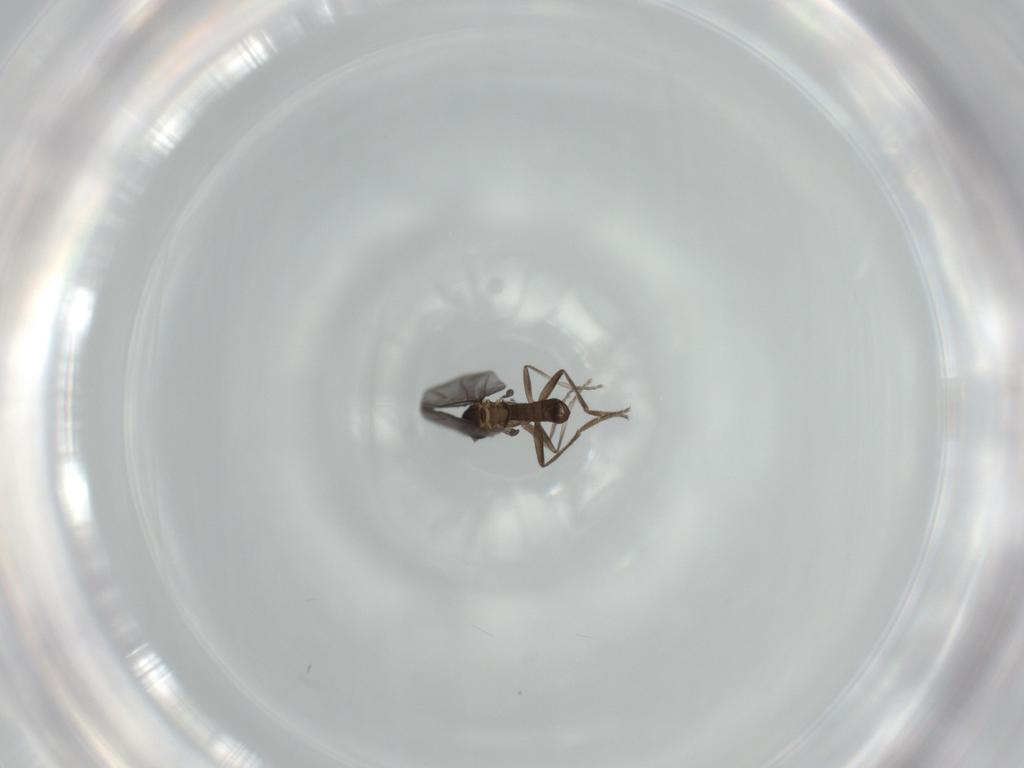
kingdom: Animalia
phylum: Arthropoda
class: Insecta
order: Diptera
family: Phoridae
